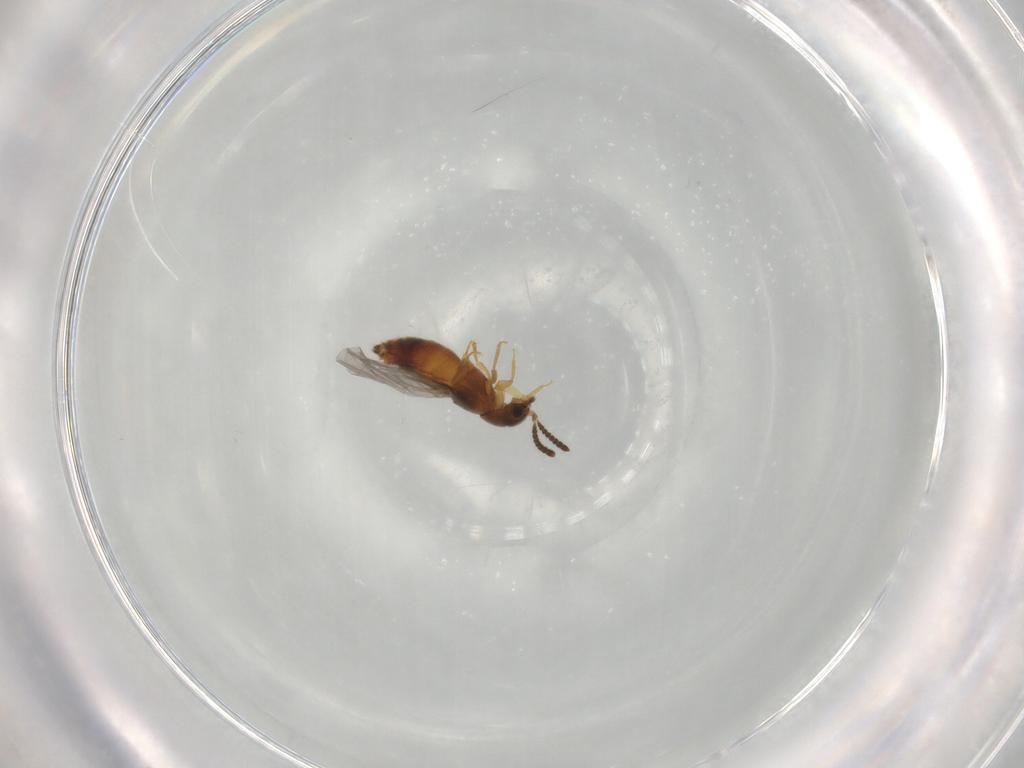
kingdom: Animalia
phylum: Arthropoda
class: Insecta
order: Coleoptera
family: Staphylinidae
